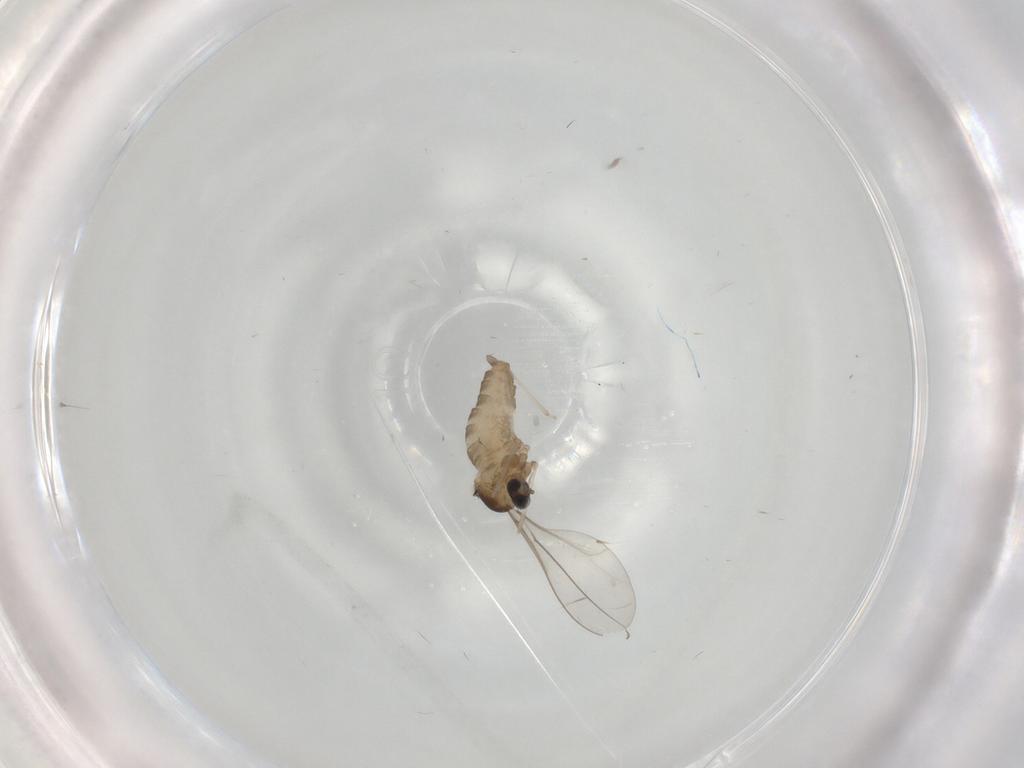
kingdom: Animalia
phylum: Arthropoda
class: Insecta
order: Diptera
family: Cecidomyiidae
